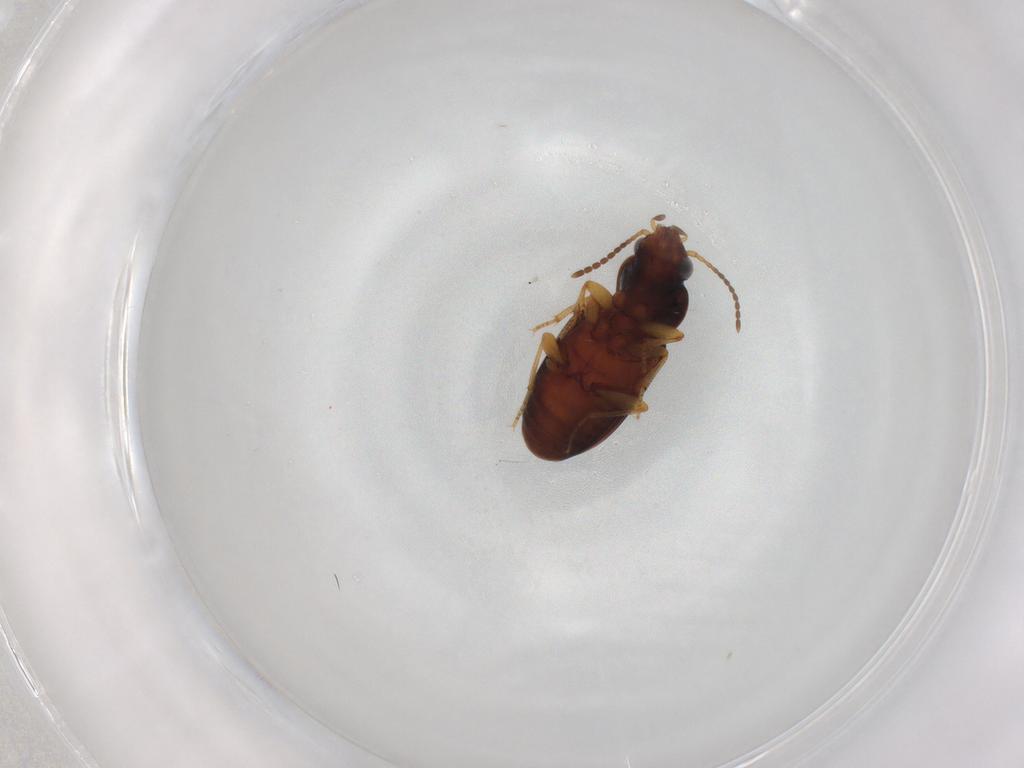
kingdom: Animalia
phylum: Arthropoda
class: Insecta
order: Coleoptera
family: Carabidae
